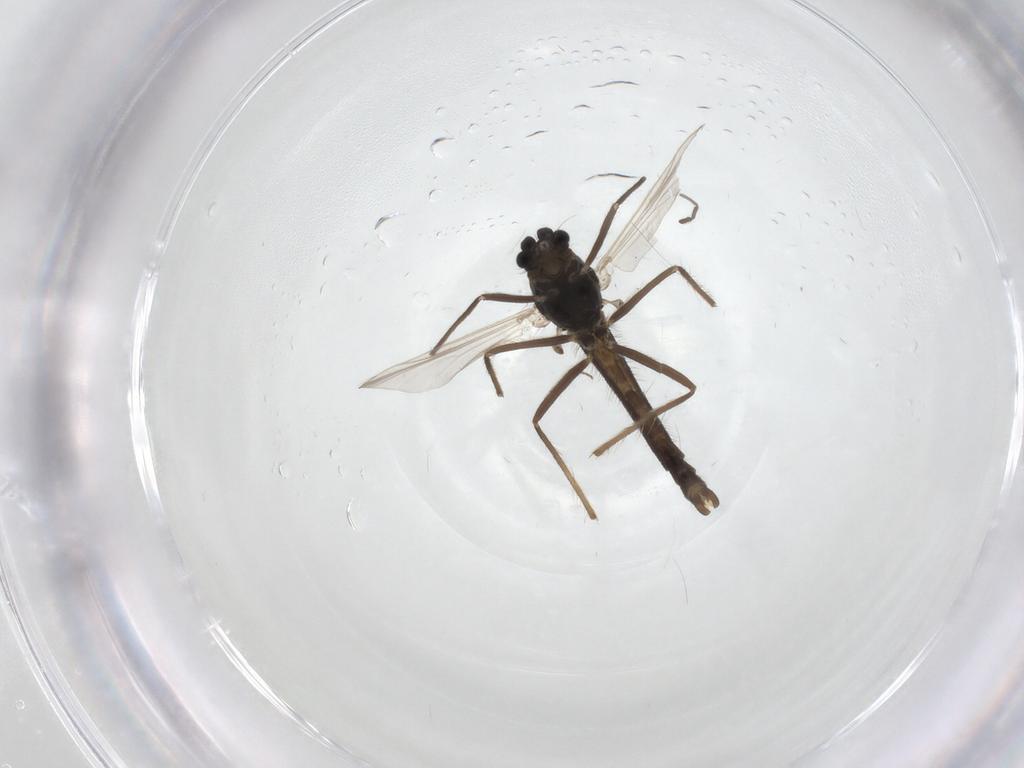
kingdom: Animalia
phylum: Arthropoda
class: Insecta
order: Diptera
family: Chironomidae
